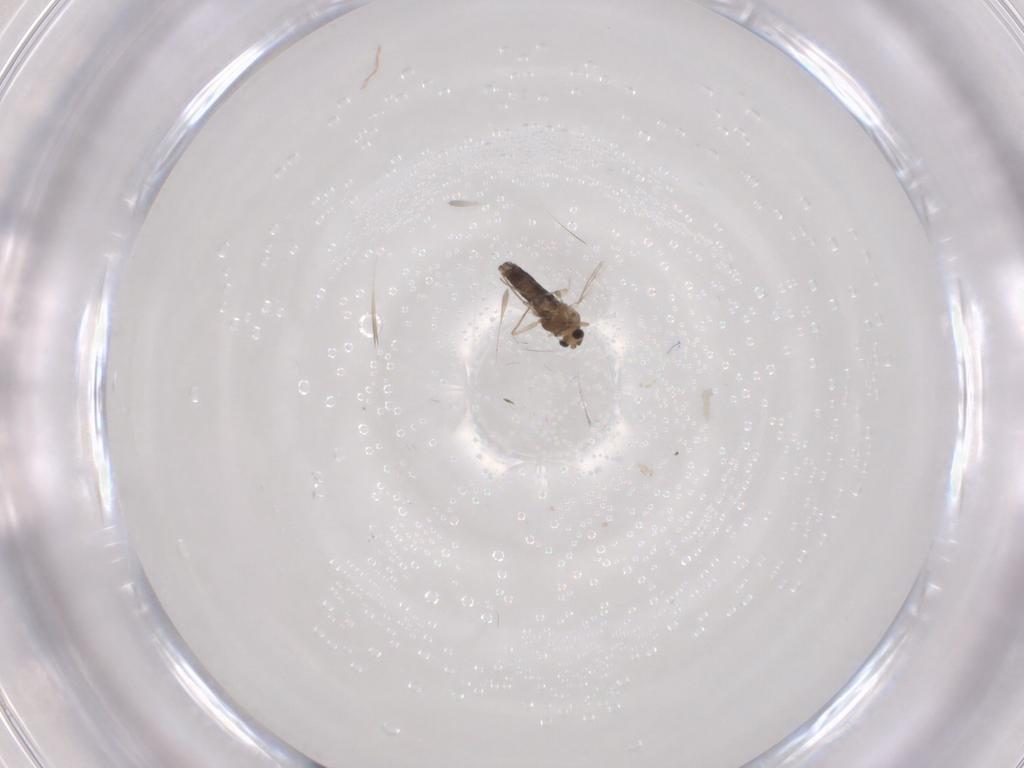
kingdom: Animalia
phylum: Arthropoda
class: Insecta
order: Diptera
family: Chironomidae
